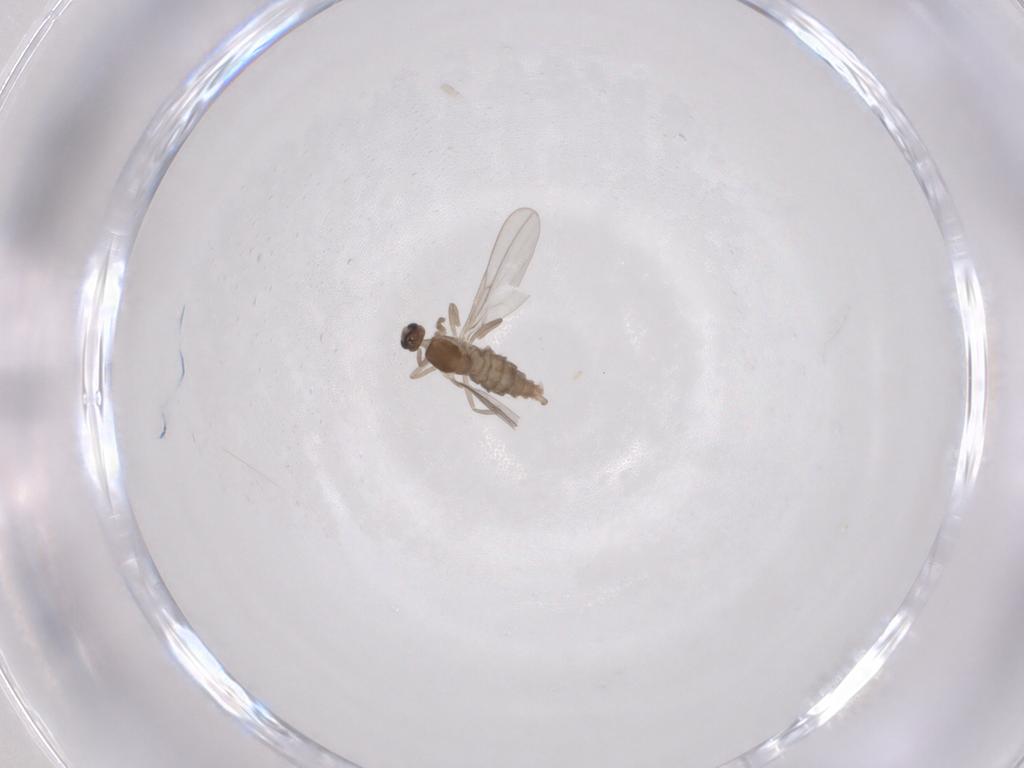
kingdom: Animalia
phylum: Arthropoda
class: Insecta
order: Diptera
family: Cecidomyiidae
